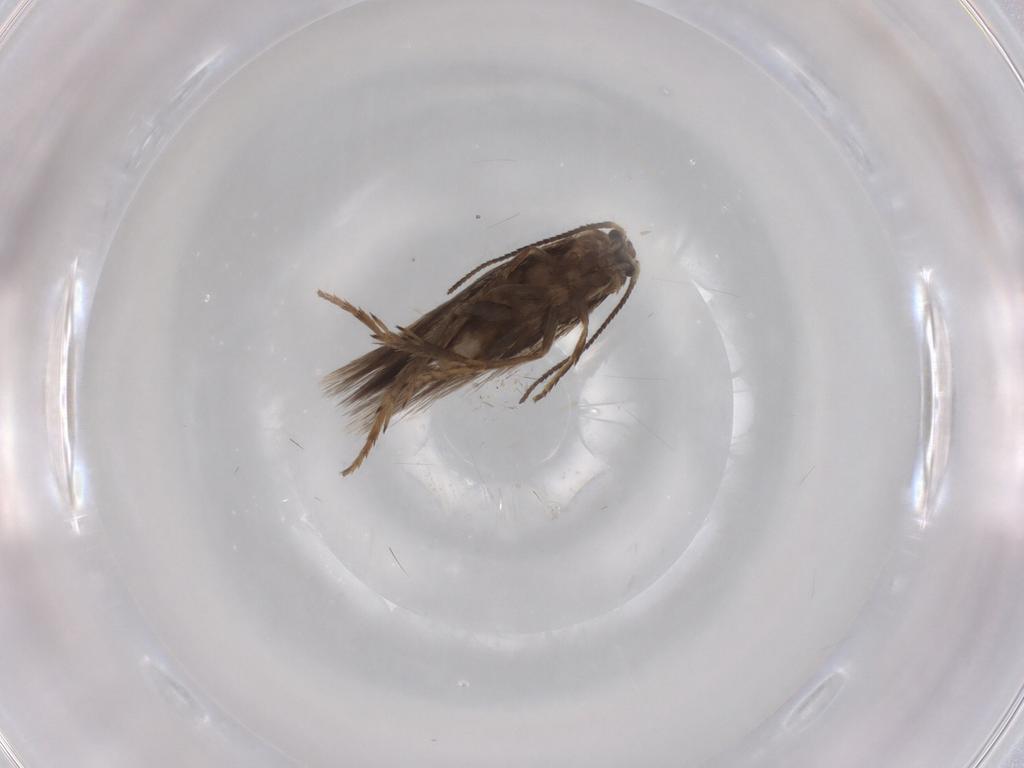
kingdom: Animalia
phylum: Arthropoda
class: Insecta
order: Lepidoptera
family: Nepticulidae
